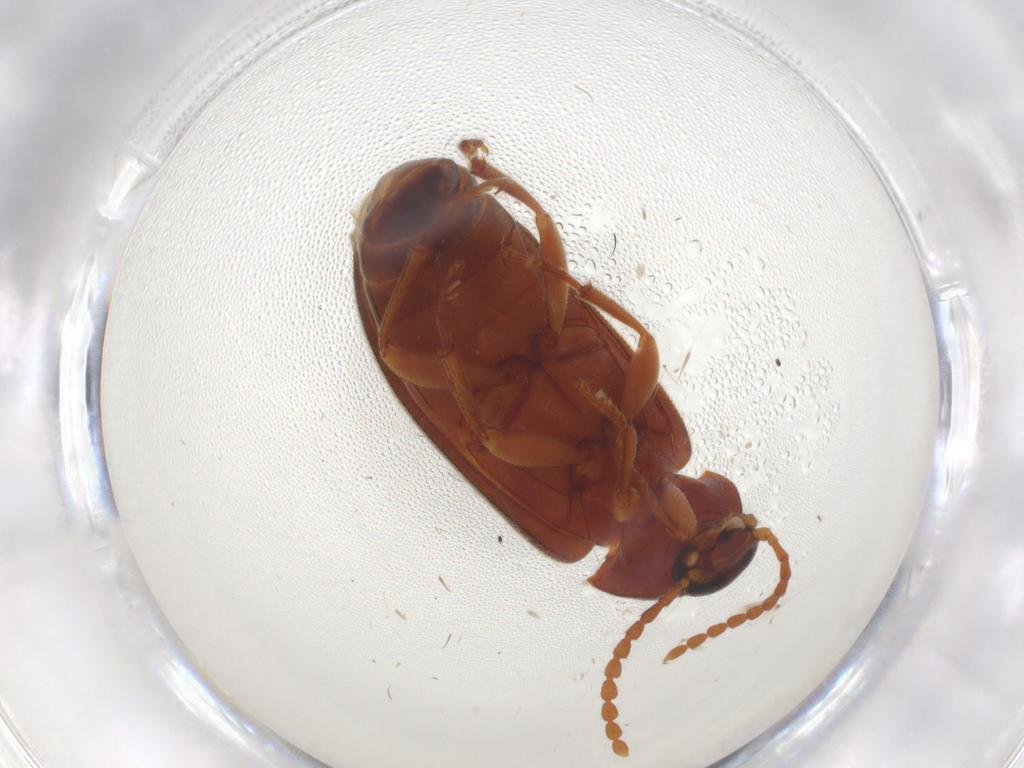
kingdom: Animalia
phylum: Arthropoda
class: Insecta
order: Coleoptera
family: Tenebrionidae
